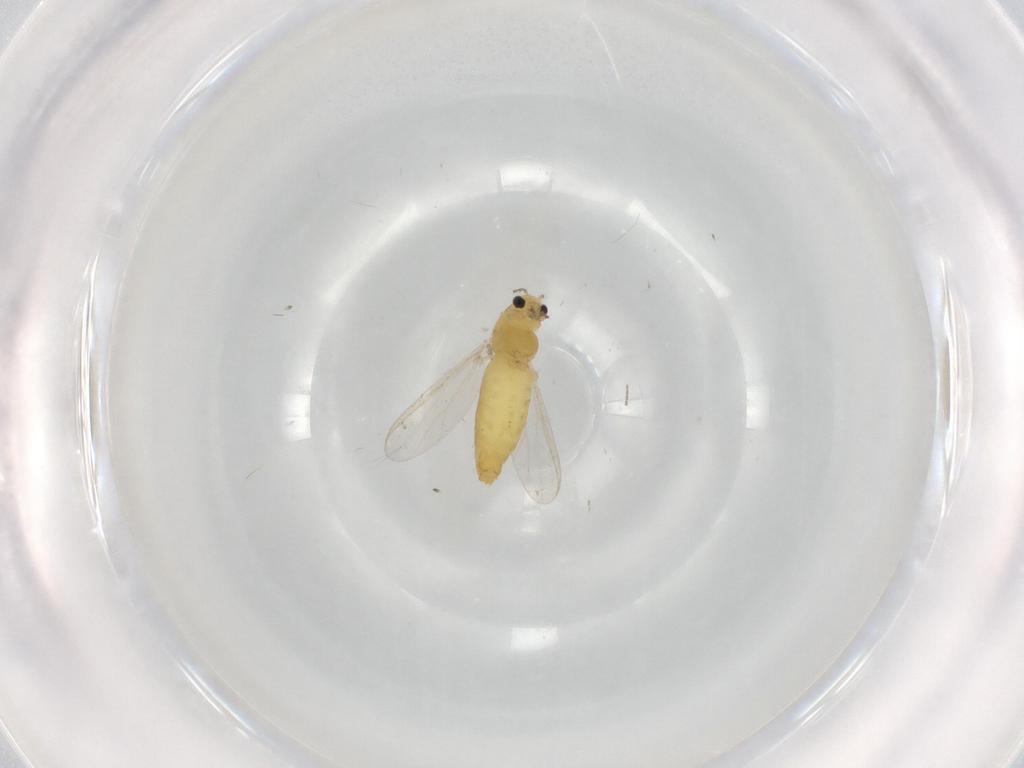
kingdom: Animalia
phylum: Arthropoda
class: Insecta
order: Diptera
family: Chironomidae
